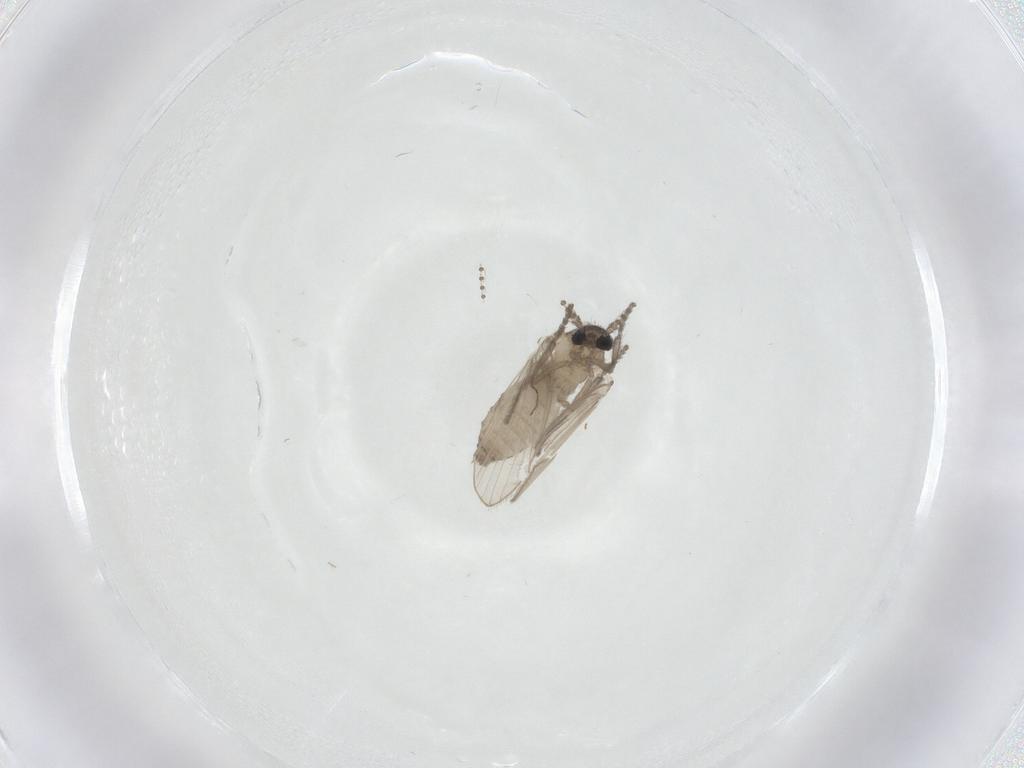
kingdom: Animalia
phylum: Arthropoda
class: Insecta
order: Diptera
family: Psychodidae
